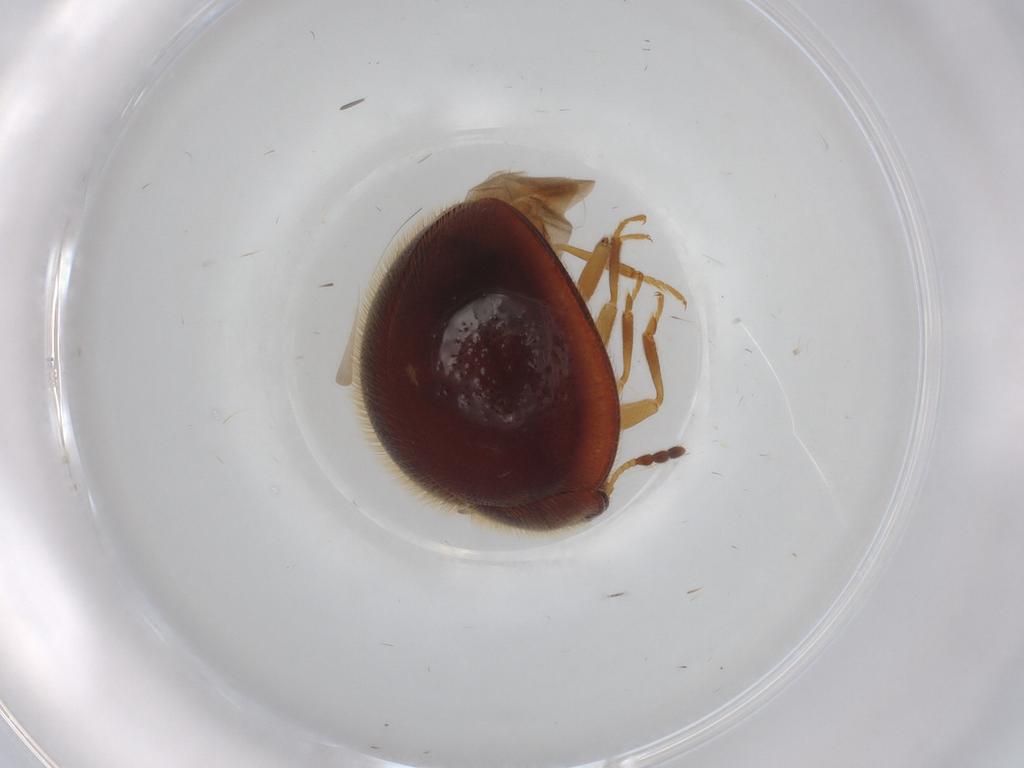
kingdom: Animalia
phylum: Arthropoda
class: Insecta
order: Coleoptera
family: Anamorphidae
